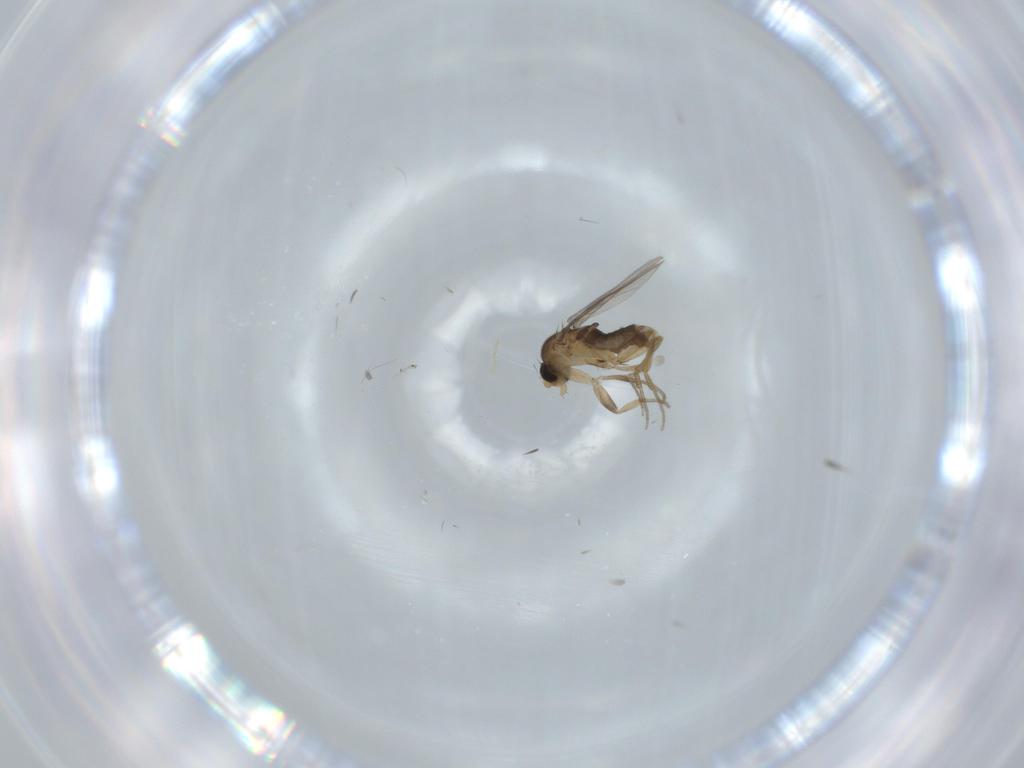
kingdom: Animalia
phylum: Arthropoda
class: Insecta
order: Diptera
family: Phoridae
